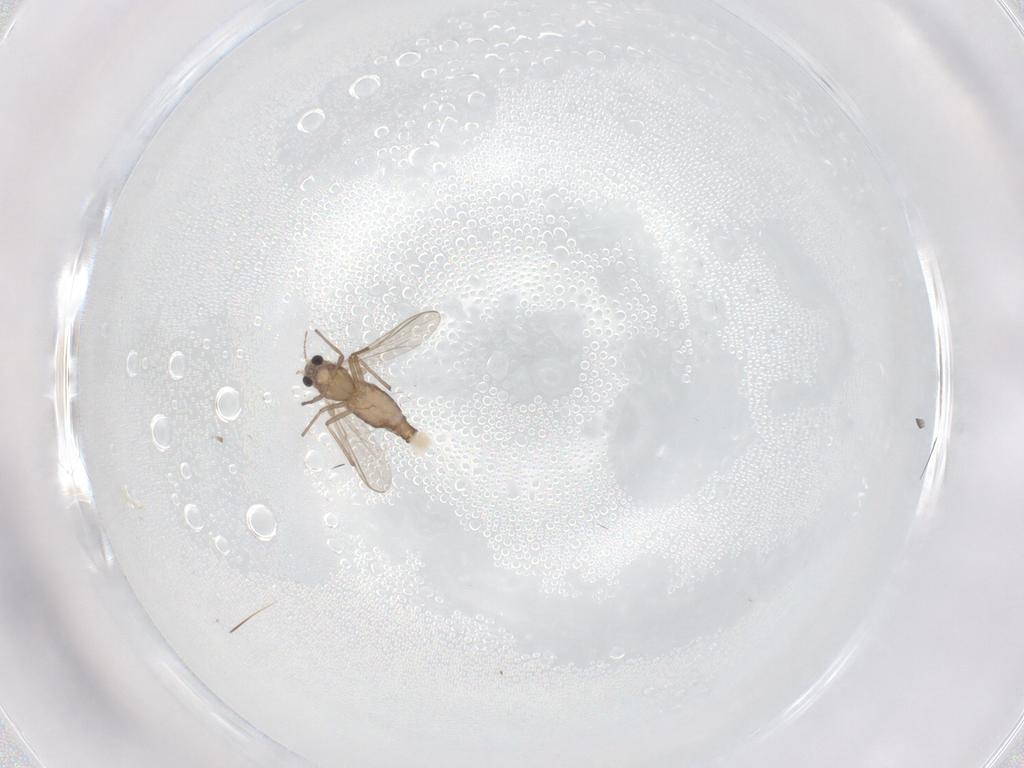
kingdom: Animalia
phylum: Arthropoda
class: Insecta
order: Diptera
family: Chironomidae
